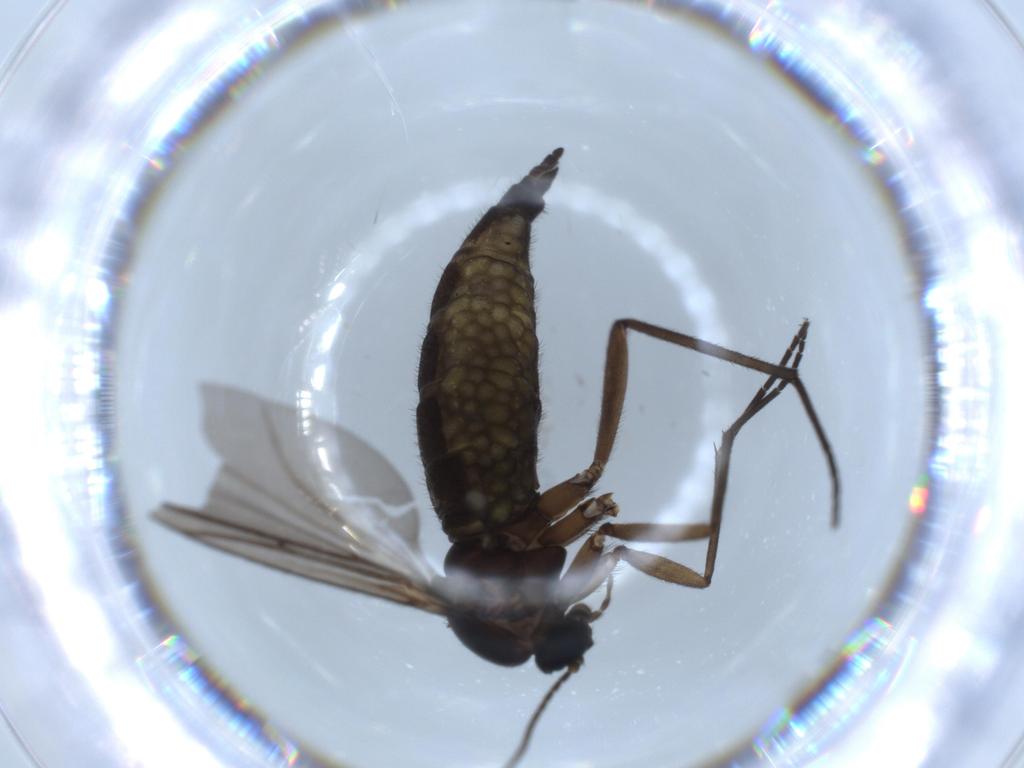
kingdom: Animalia
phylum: Arthropoda
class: Insecta
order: Diptera
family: Sciaridae
